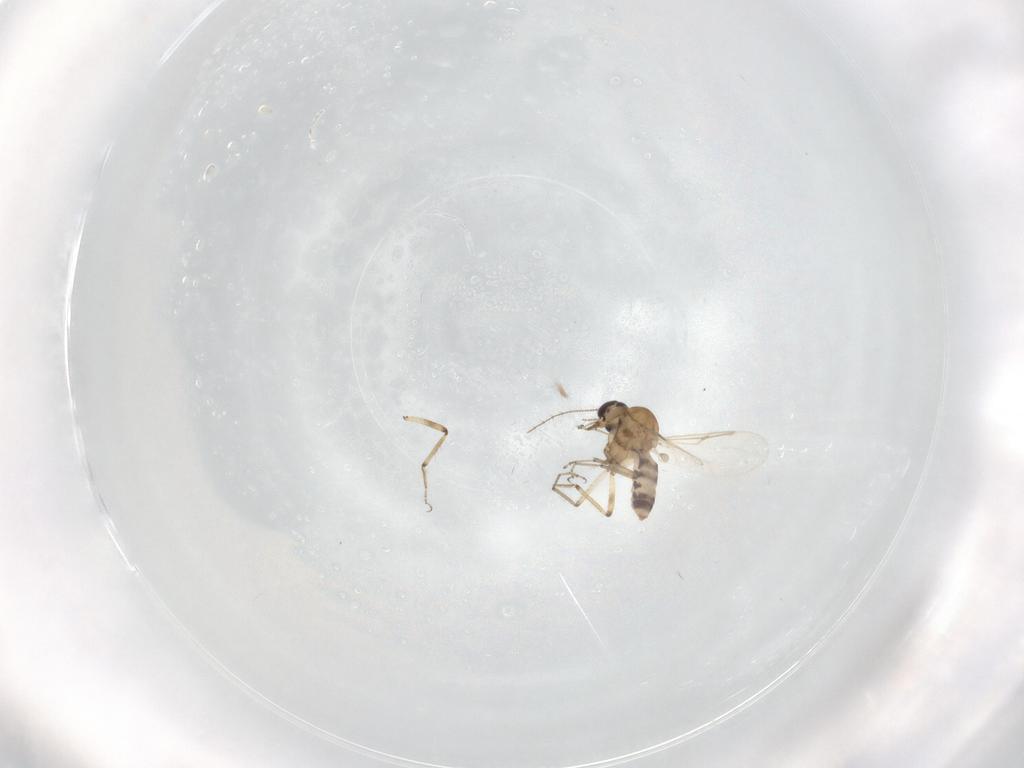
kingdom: Animalia
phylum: Arthropoda
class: Insecta
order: Diptera
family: Ceratopogonidae
